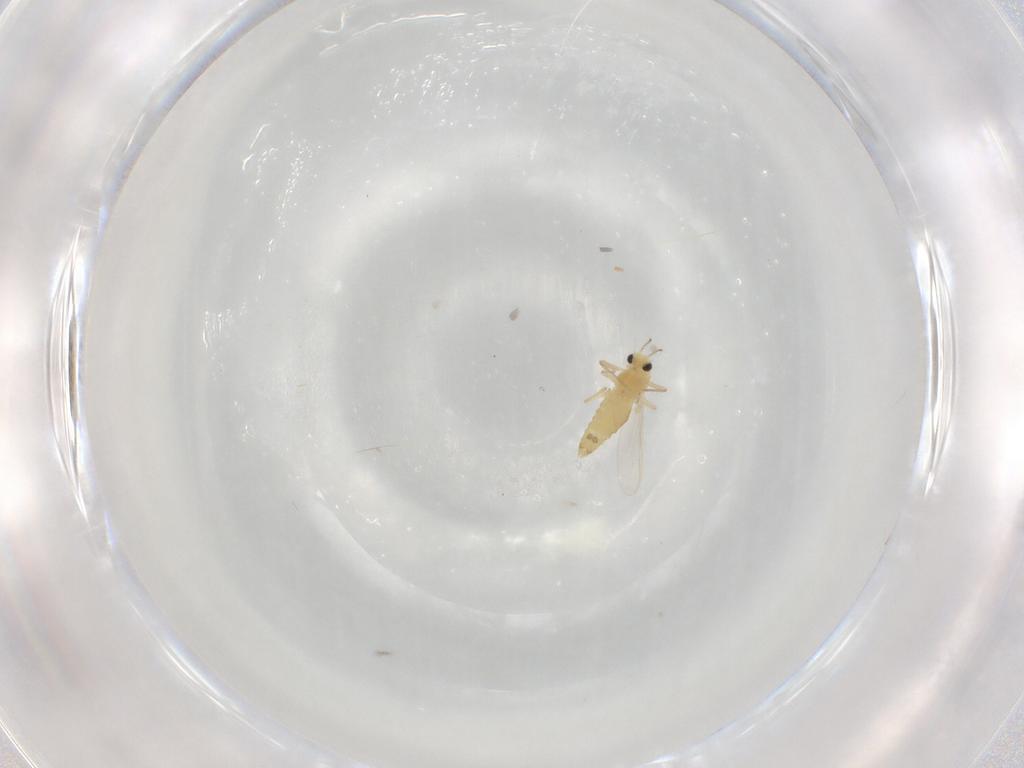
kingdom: Animalia
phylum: Arthropoda
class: Insecta
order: Diptera
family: Chironomidae
